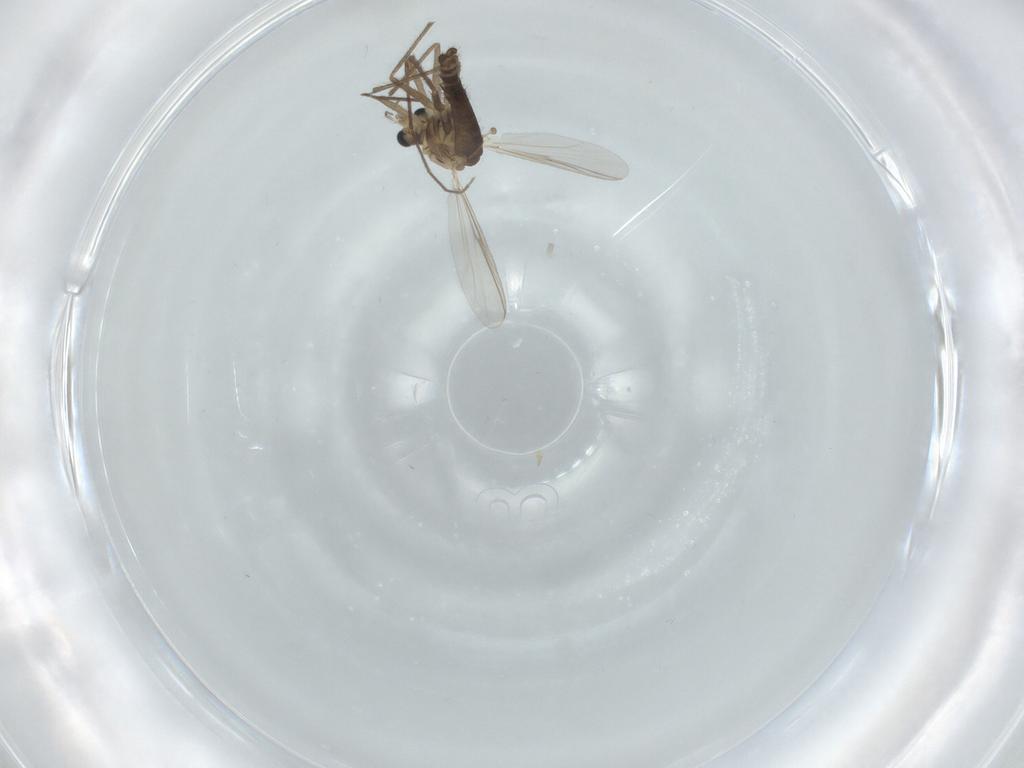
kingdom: Animalia
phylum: Arthropoda
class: Insecta
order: Diptera
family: Chironomidae
